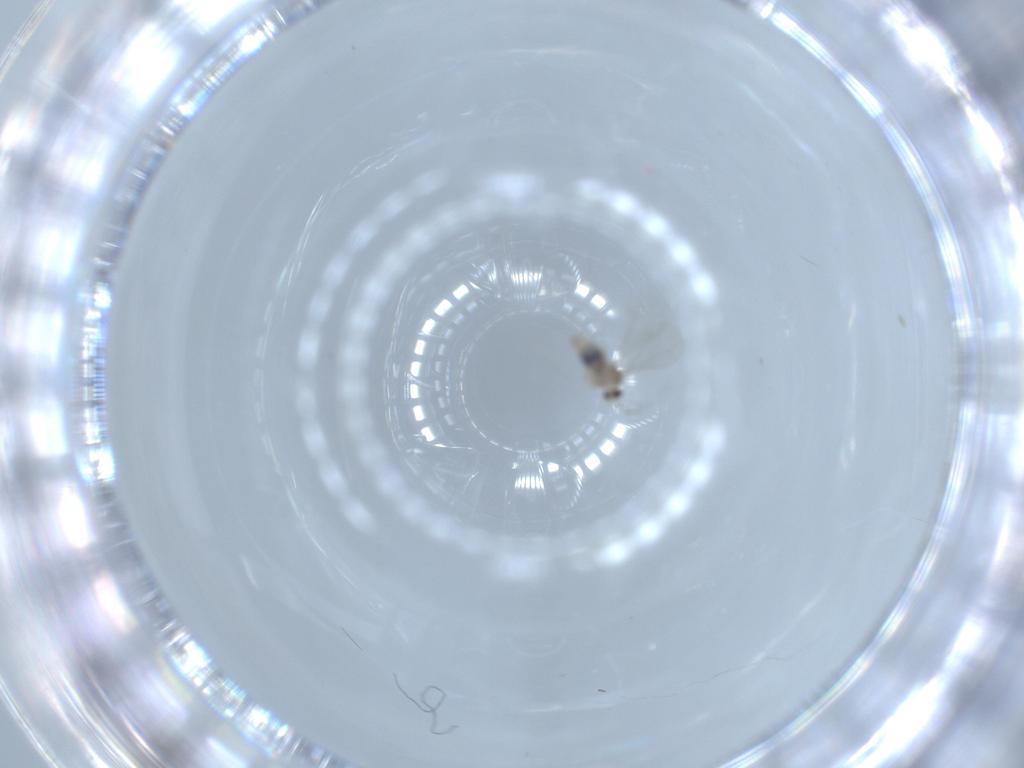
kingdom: Animalia
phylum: Arthropoda
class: Insecta
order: Diptera
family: Cecidomyiidae
